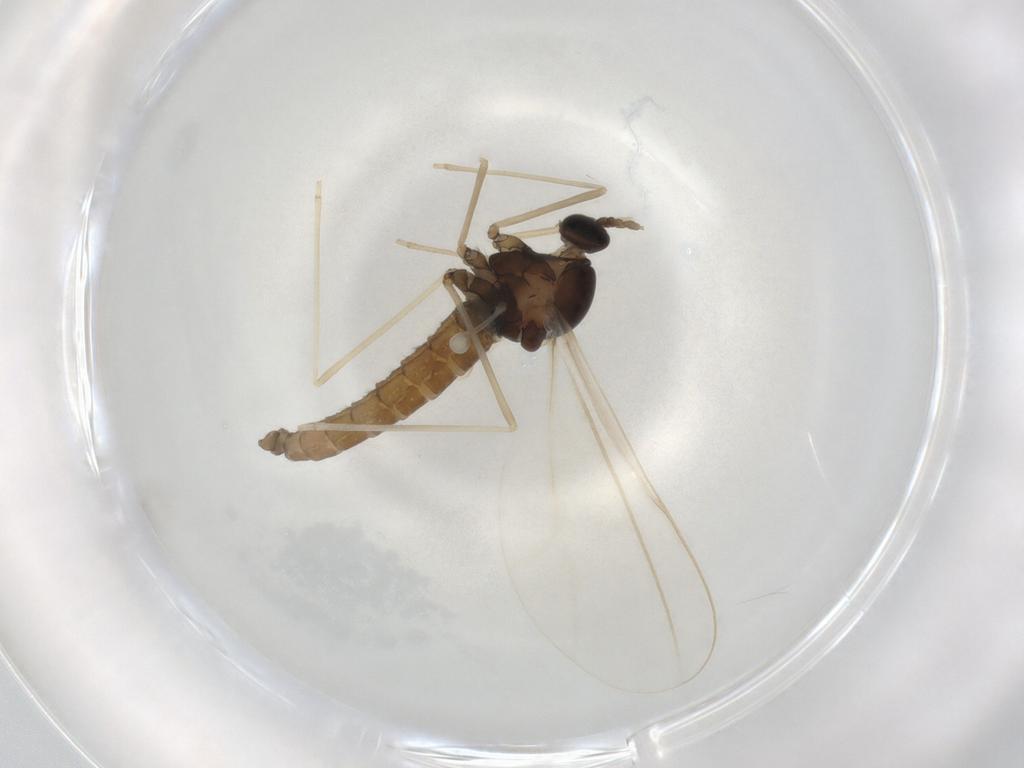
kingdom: Animalia
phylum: Arthropoda
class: Insecta
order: Diptera
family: Cecidomyiidae
